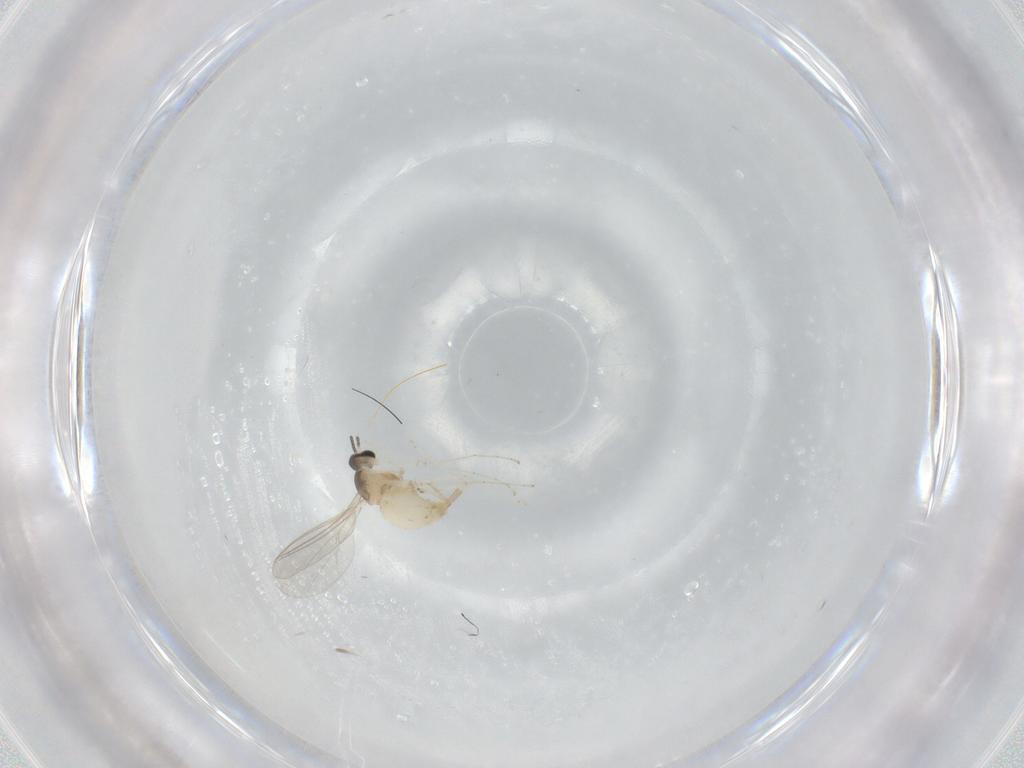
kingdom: Animalia
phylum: Arthropoda
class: Insecta
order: Diptera
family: Cecidomyiidae
